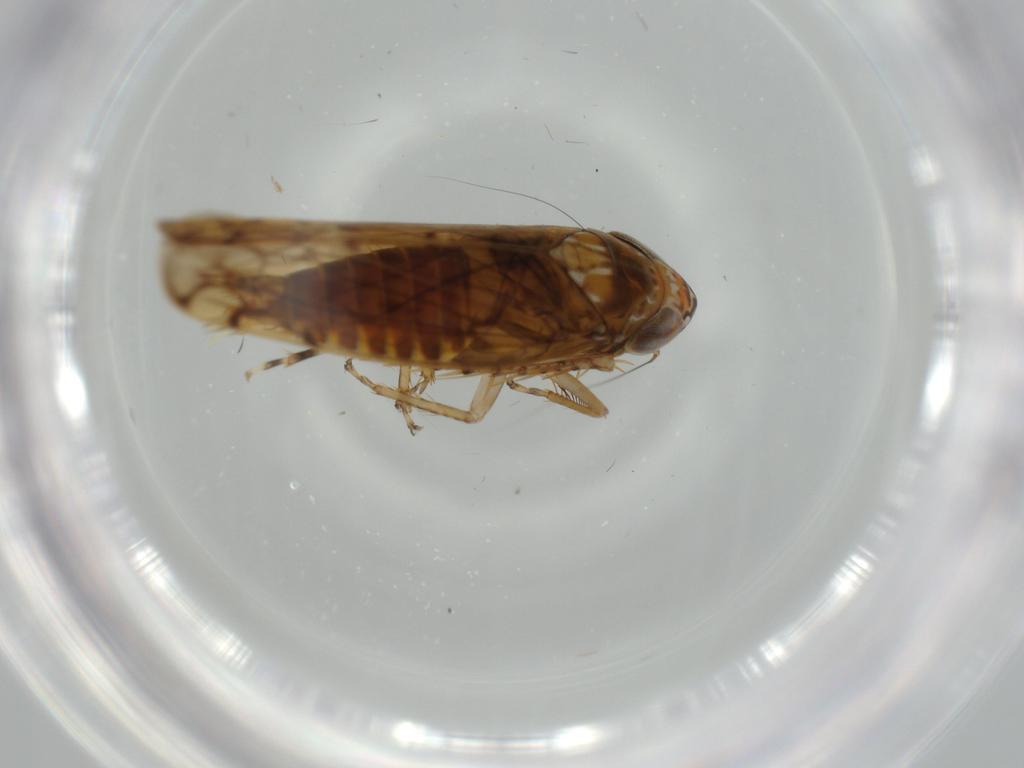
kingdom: Animalia
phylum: Arthropoda
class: Insecta
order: Hemiptera
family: Cicadellidae
